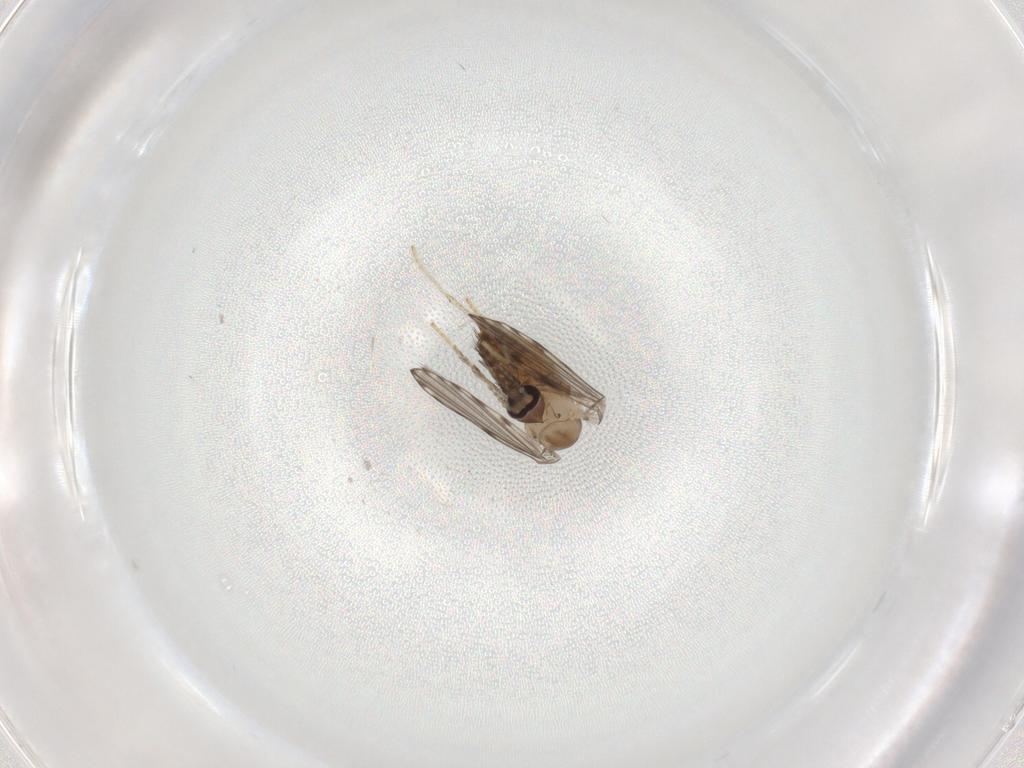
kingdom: Animalia
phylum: Arthropoda
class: Insecta
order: Diptera
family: Psychodidae
